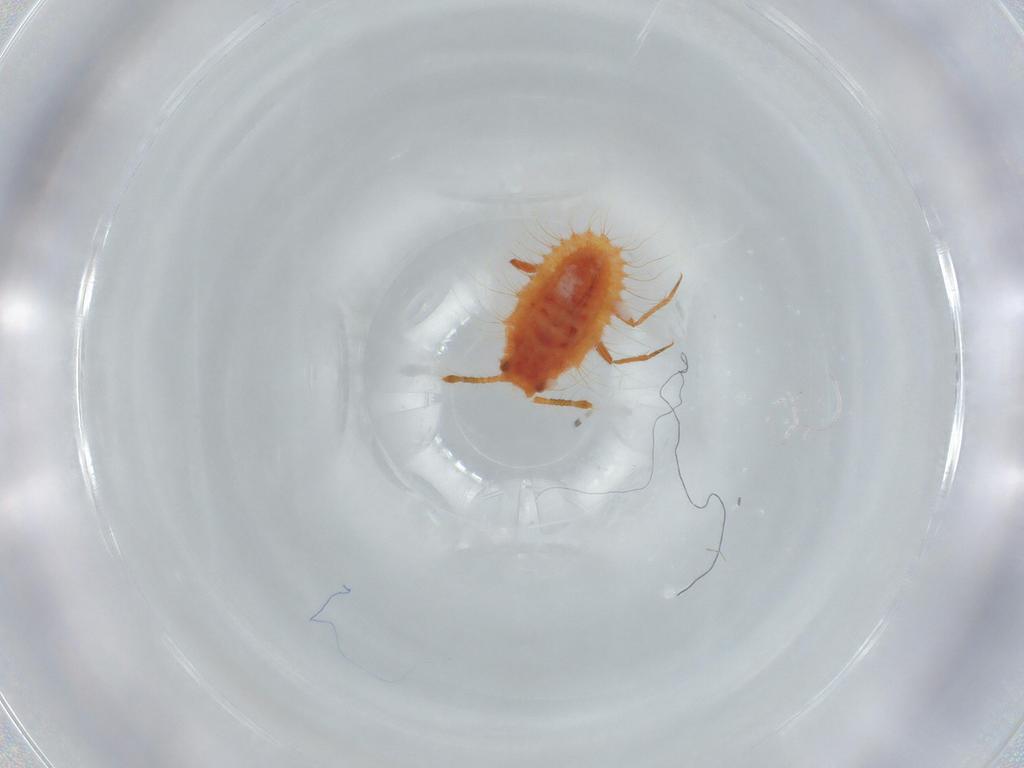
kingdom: Animalia
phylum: Arthropoda
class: Insecta
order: Hemiptera
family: Coccoidea_incertae_sedis
